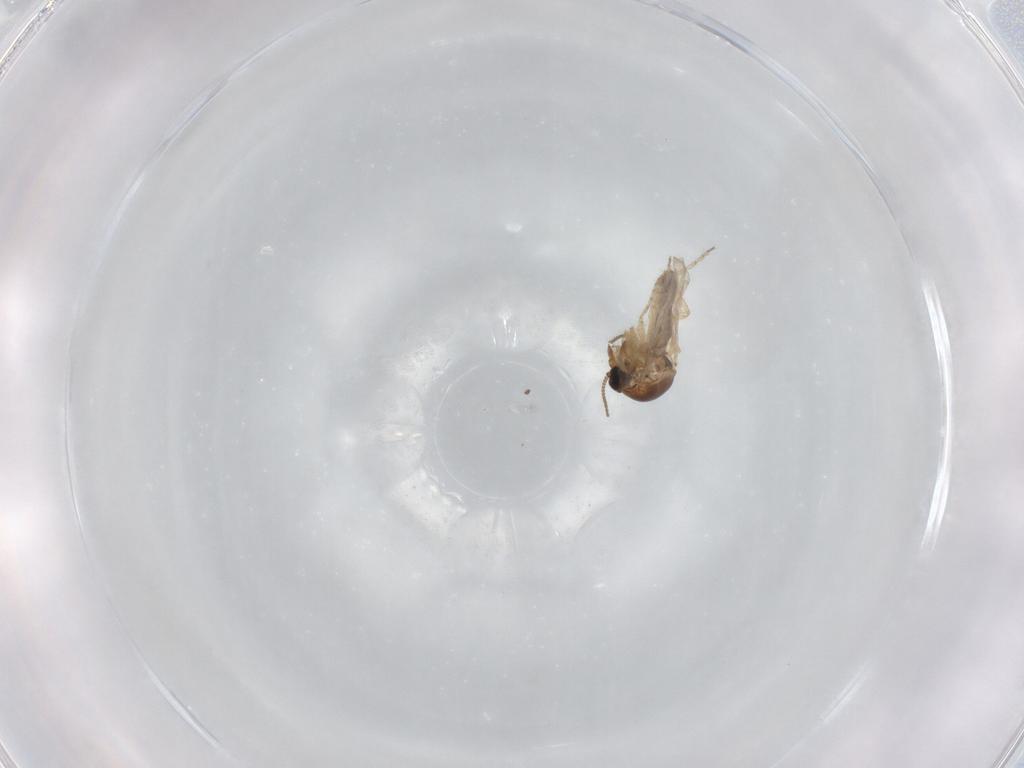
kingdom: Animalia
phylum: Arthropoda
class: Insecta
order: Diptera
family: Ceratopogonidae
